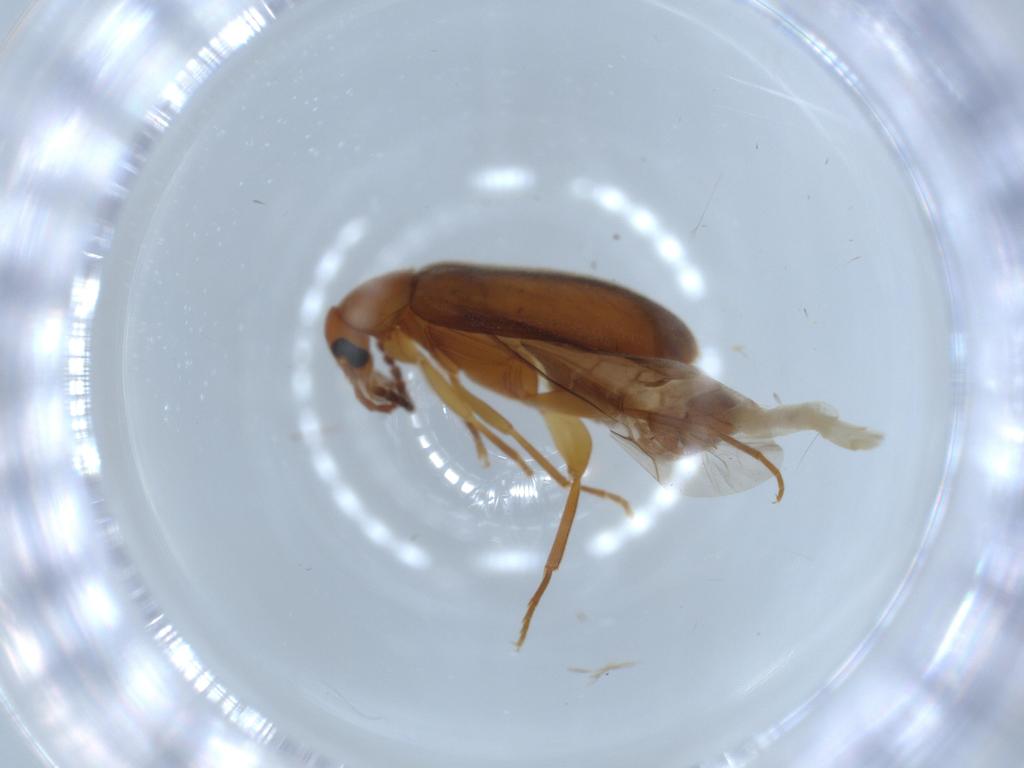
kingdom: Animalia
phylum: Arthropoda
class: Insecta
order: Coleoptera
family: Scraptiidae
